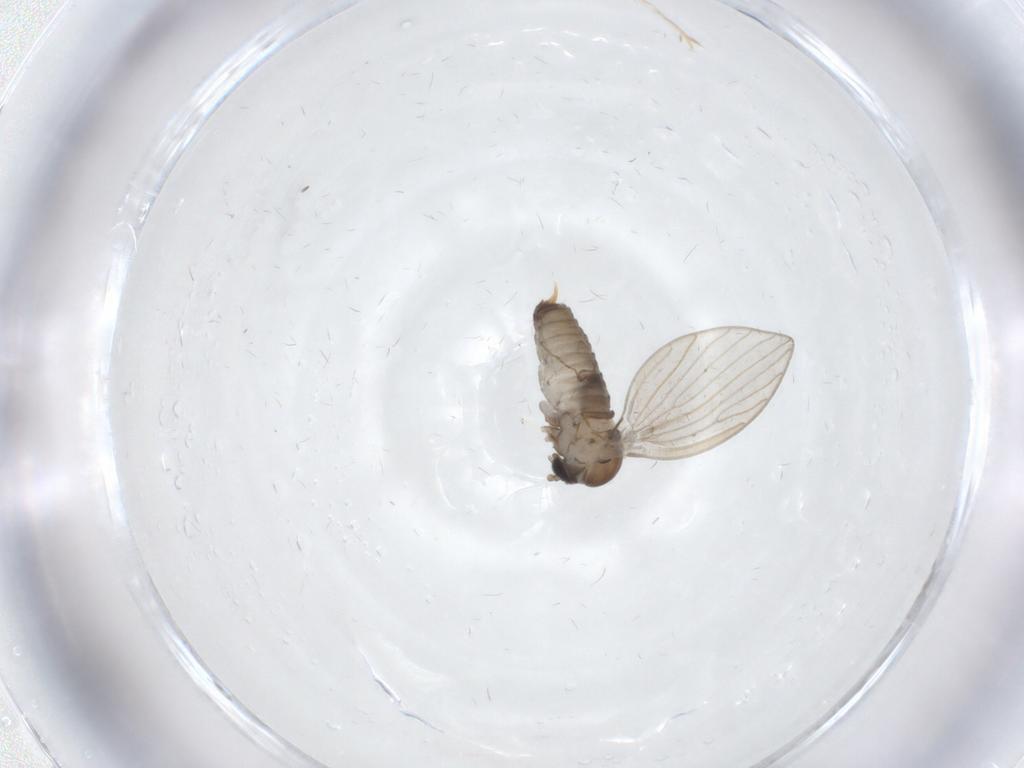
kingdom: Animalia
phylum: Arthropoda
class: Insecta
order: Diptera
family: Psychodidae
